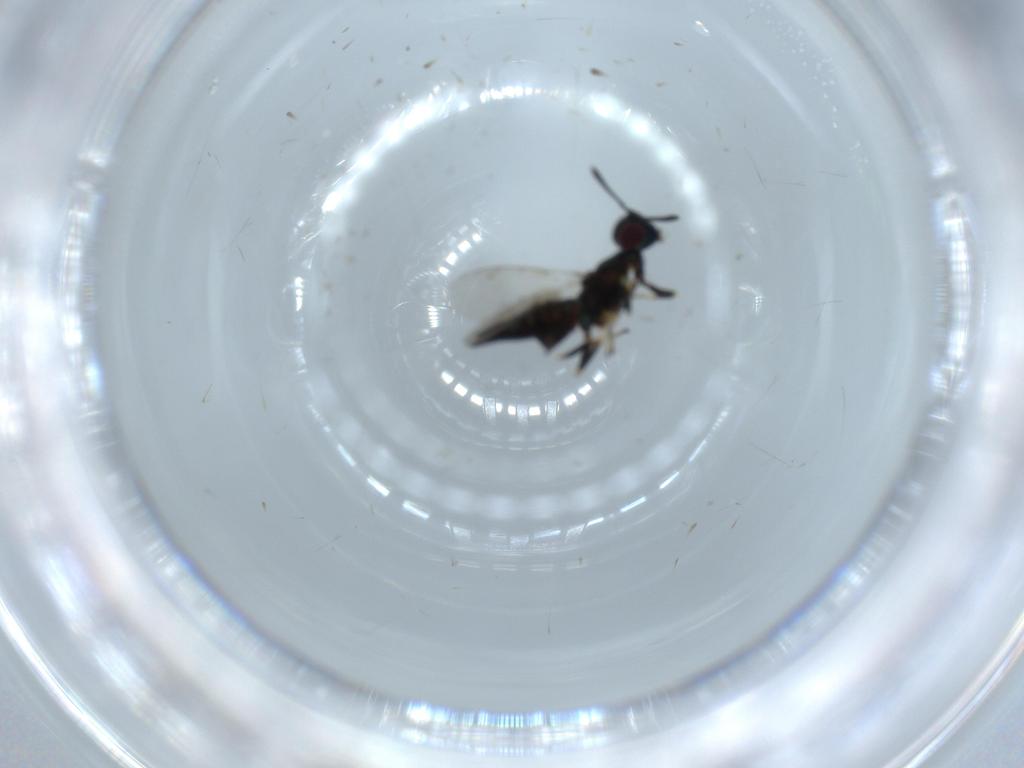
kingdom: Animalia
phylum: Arthropoda
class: Insecta
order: Hymenoptera
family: Eupelmidae
